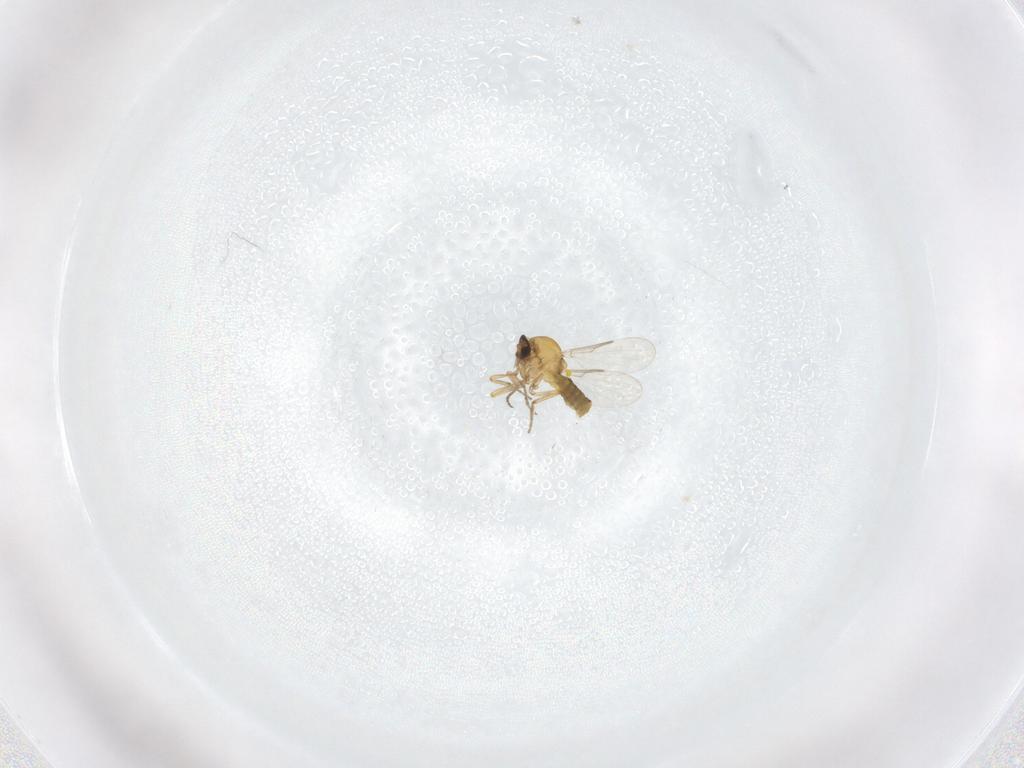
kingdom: Animalia
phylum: Arthropoda
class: Insecta
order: Diptera
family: Ceratopogonidae
